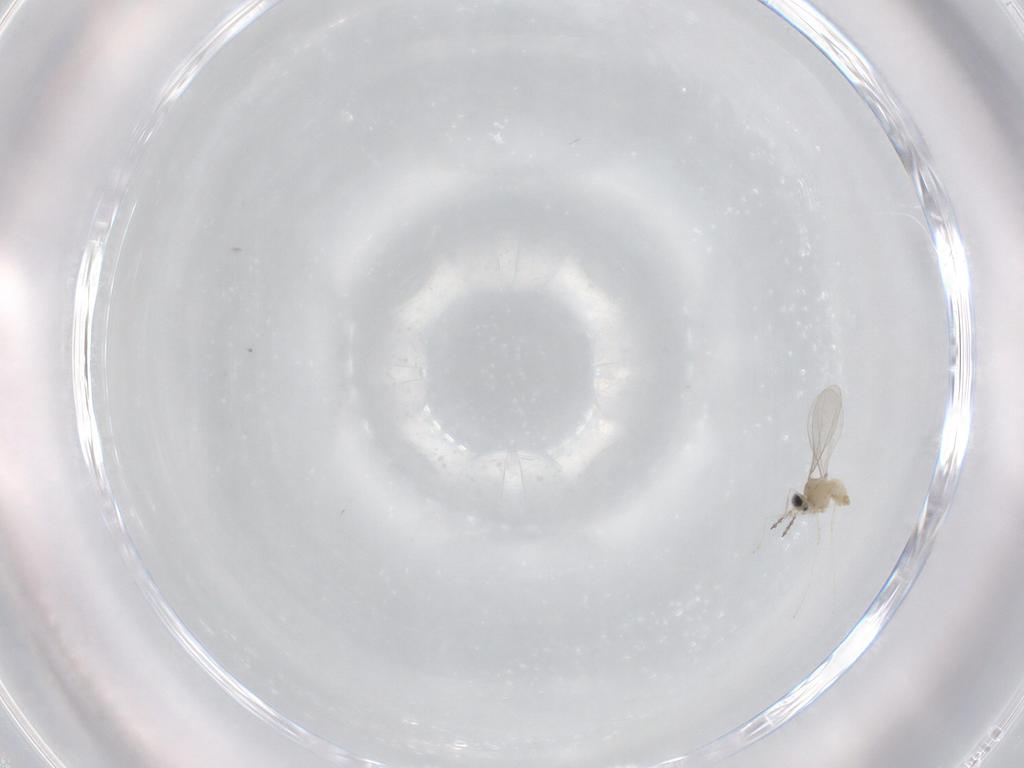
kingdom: Animalia
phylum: Arthropoda
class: Insecta
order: Diptera
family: Cecidomyiidae
